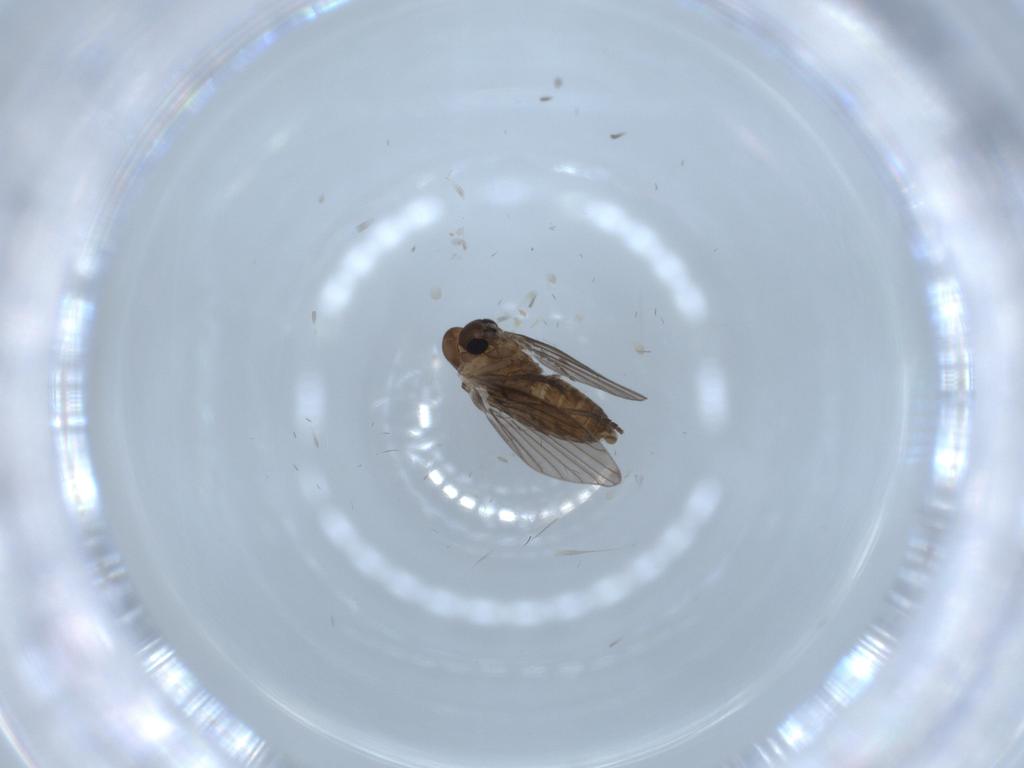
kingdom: Animalia
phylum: Arthropoda
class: Insecta
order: Diptera
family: Psychodidae
